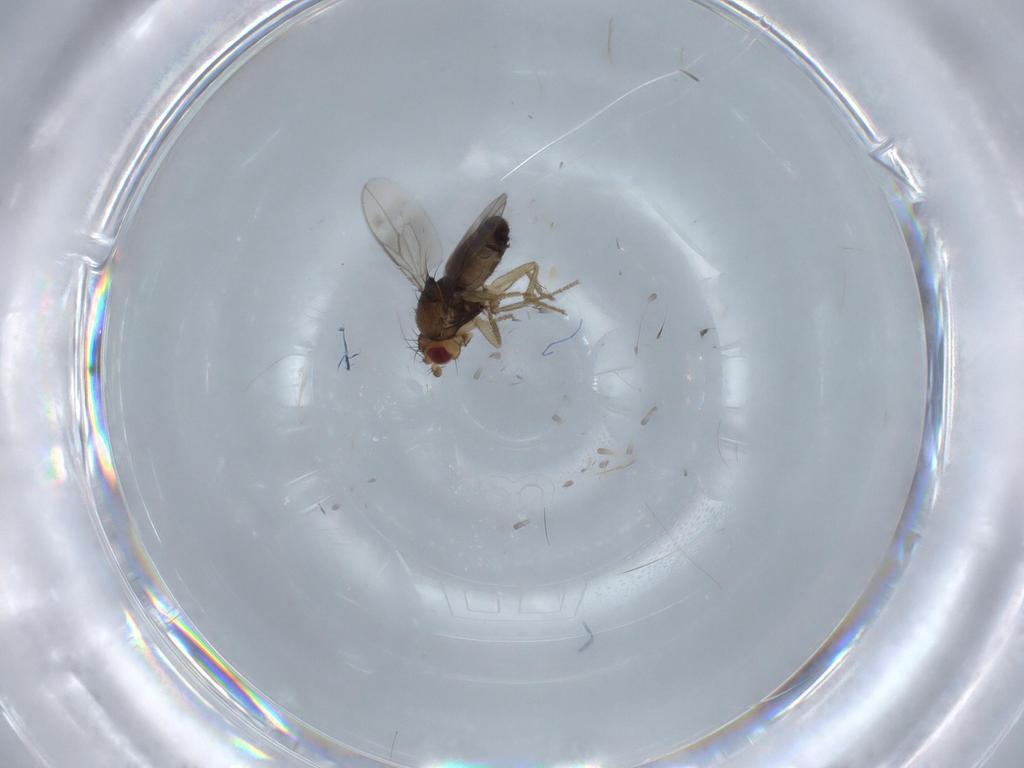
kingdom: Animalia
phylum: Arthropoda
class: Insecta
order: Diptera
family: Sphaeroceridae
